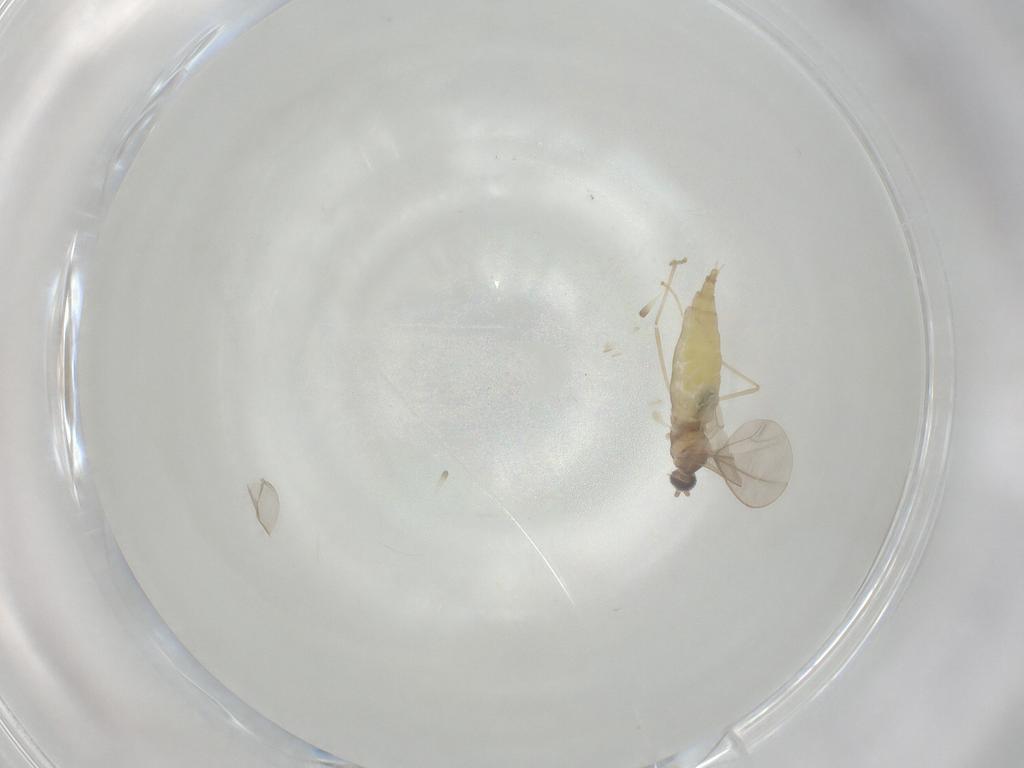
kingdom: Animalia
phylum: Arthropoda
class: Insecta
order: Diptera
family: Cecidomyiidae
